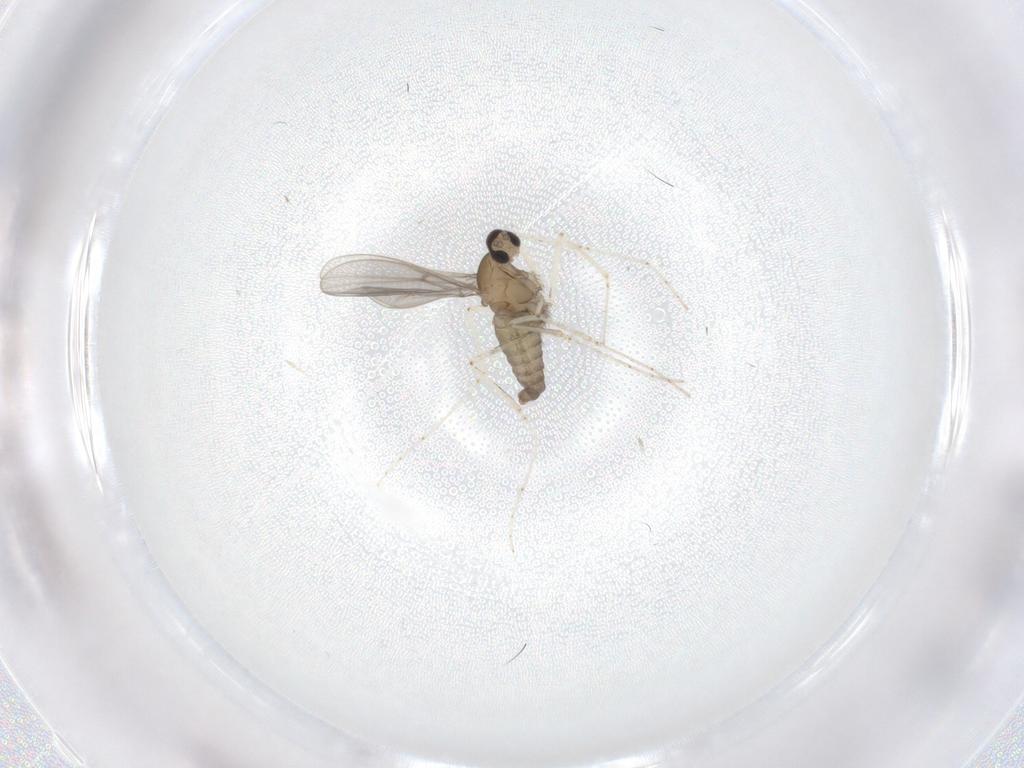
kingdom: Animalia
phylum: Arthropoda
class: Insecta
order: Diptera
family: Cecidomyiidae
